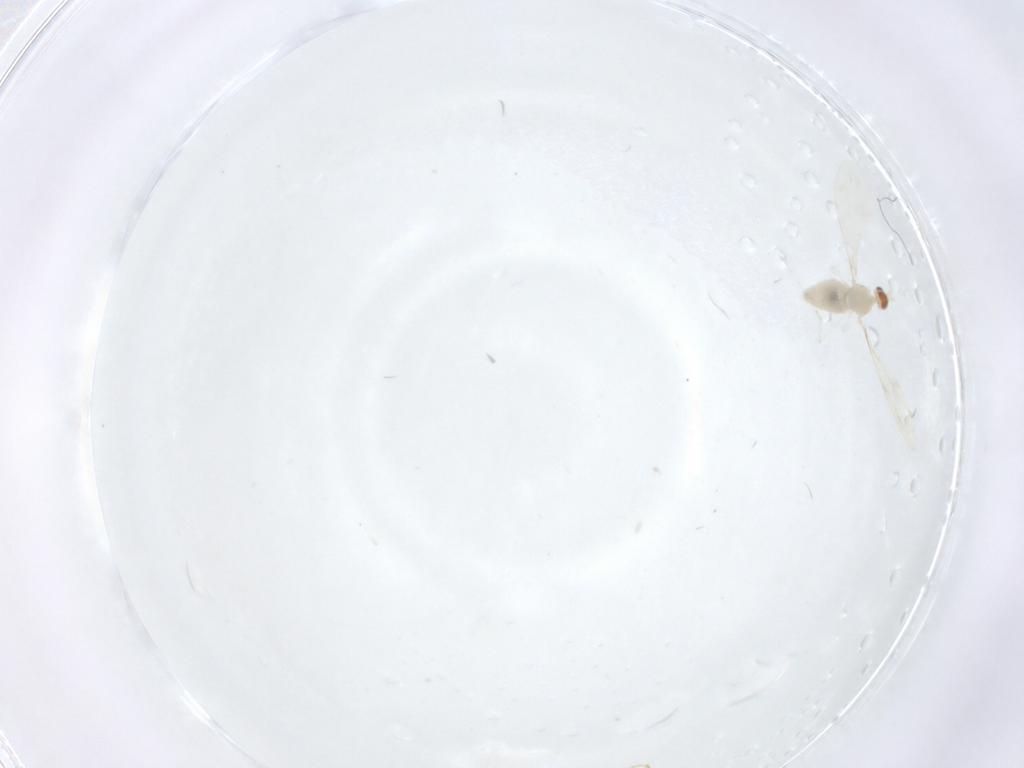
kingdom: Animalia
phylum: Arthropoda
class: Insecta
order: Diptera
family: Cecidomyiidae
